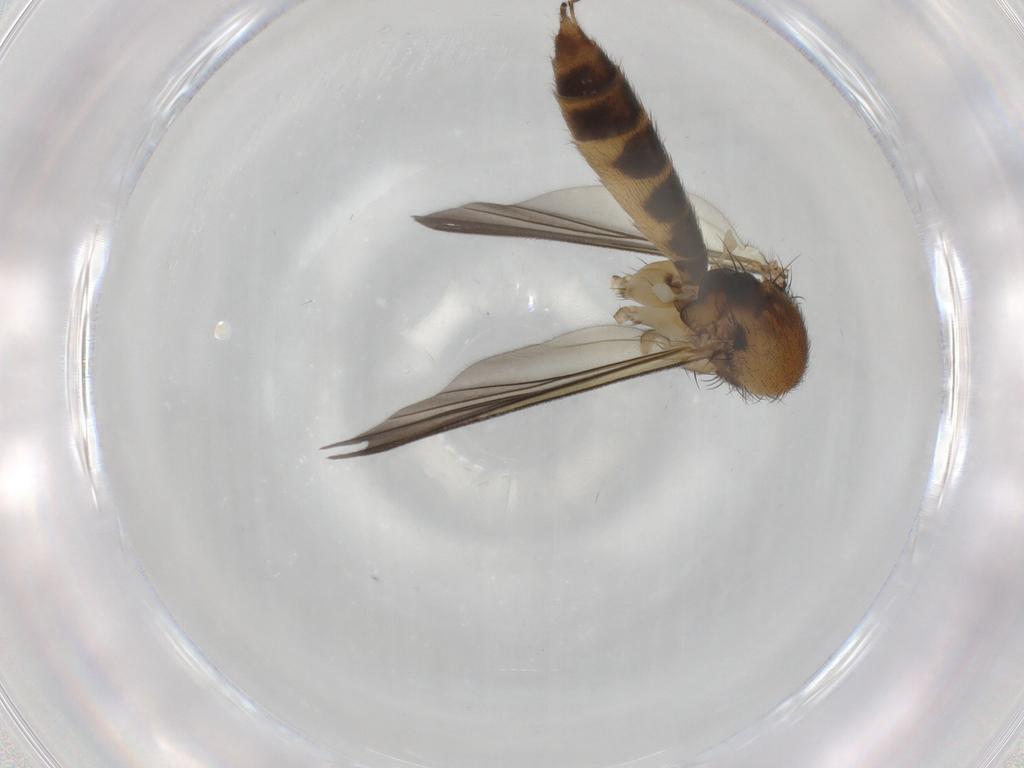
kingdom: Animalia
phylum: Arthropoda
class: Insecta
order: Diptera
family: Mycetophilidae
